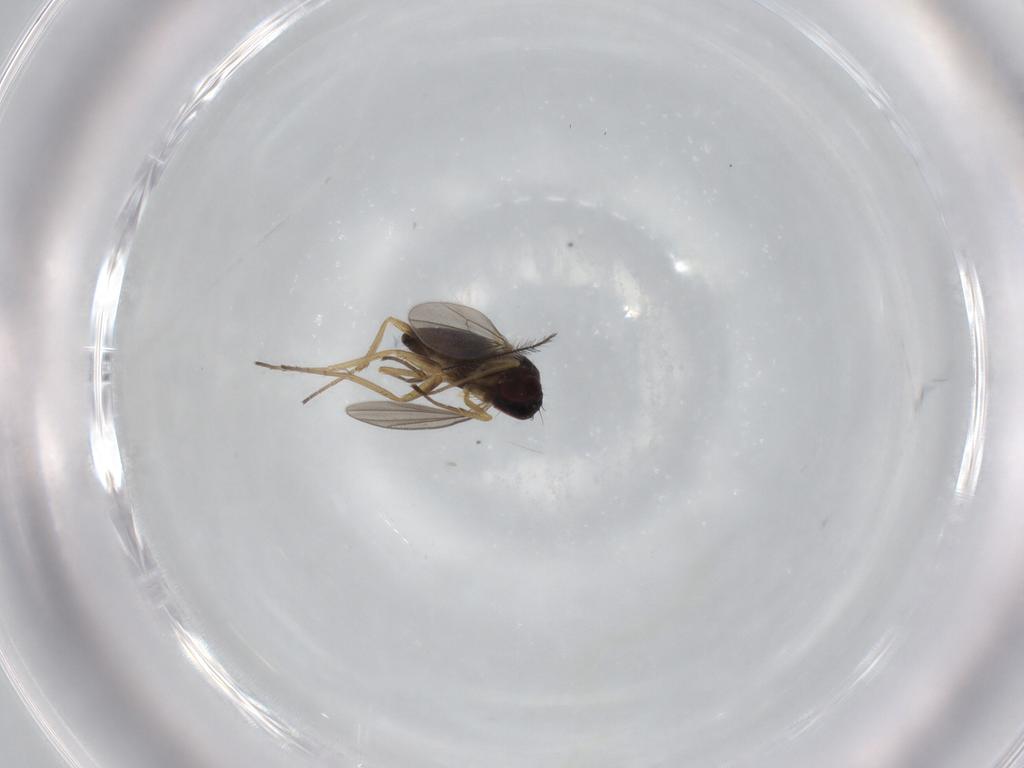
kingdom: Animalia
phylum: Arthropoda
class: Insecta
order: Diptera
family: Dolichopodidae
